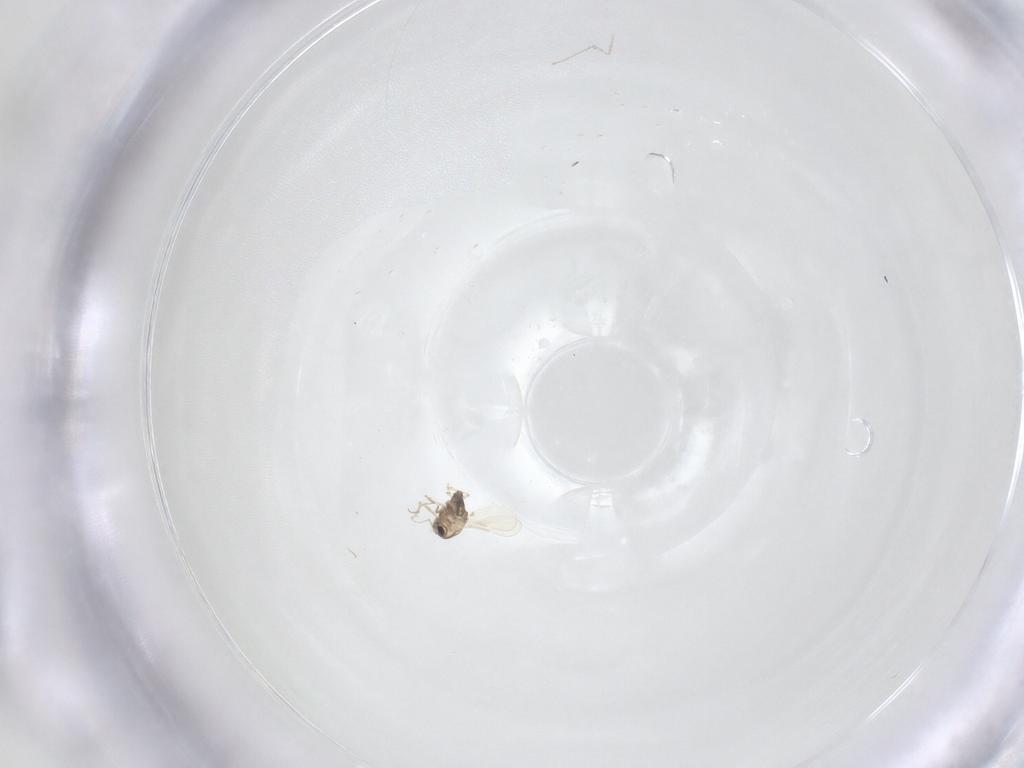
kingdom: Animalia
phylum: Arthropoda
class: Insecta
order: Diptera
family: Chironomidae
